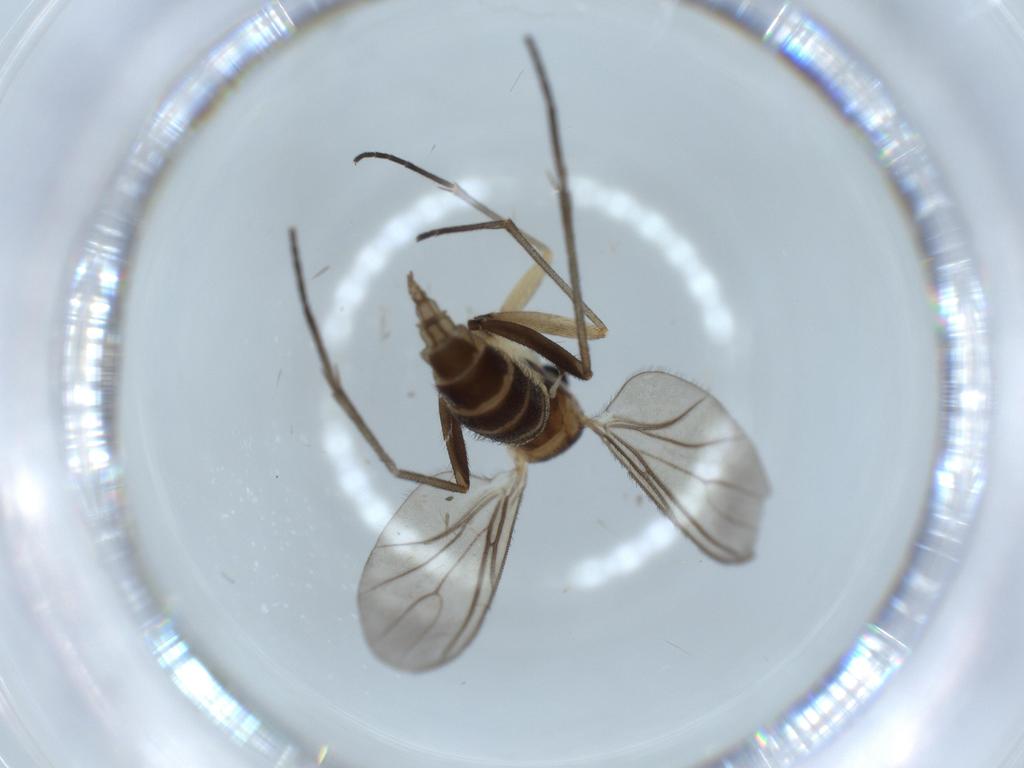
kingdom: Animalia
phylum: Arthropoda
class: Insecta
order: Diptera
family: Sciaridae
